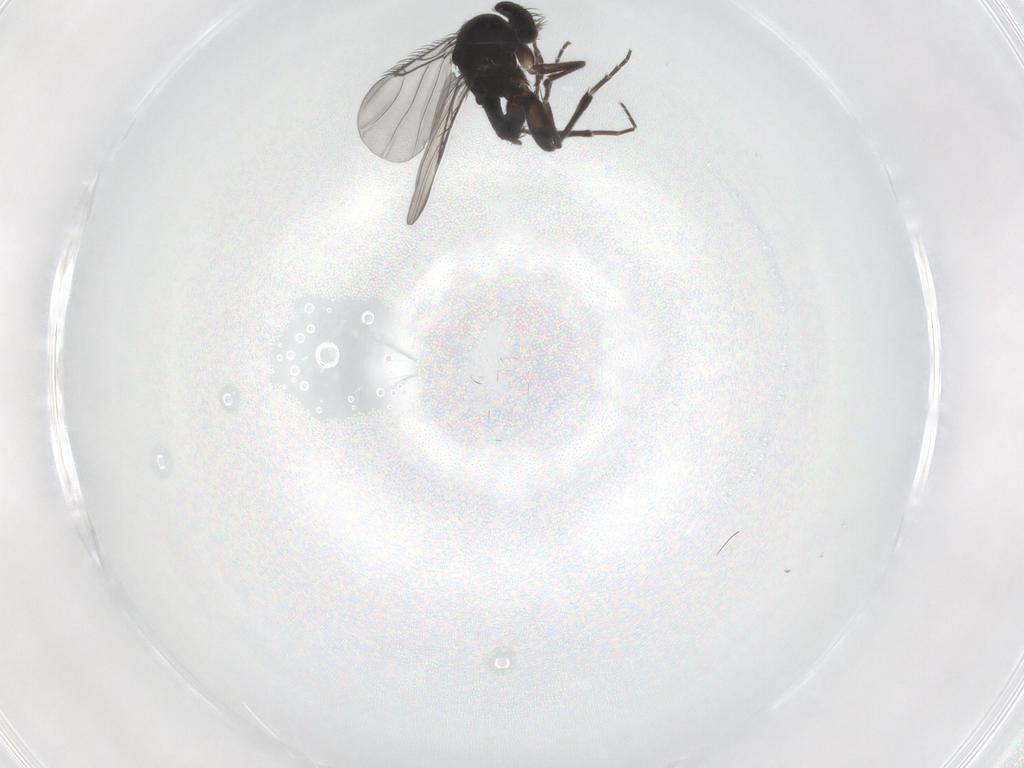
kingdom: Animalia
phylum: Arthropoda
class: Insecta
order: Diptera
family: Phoridae
